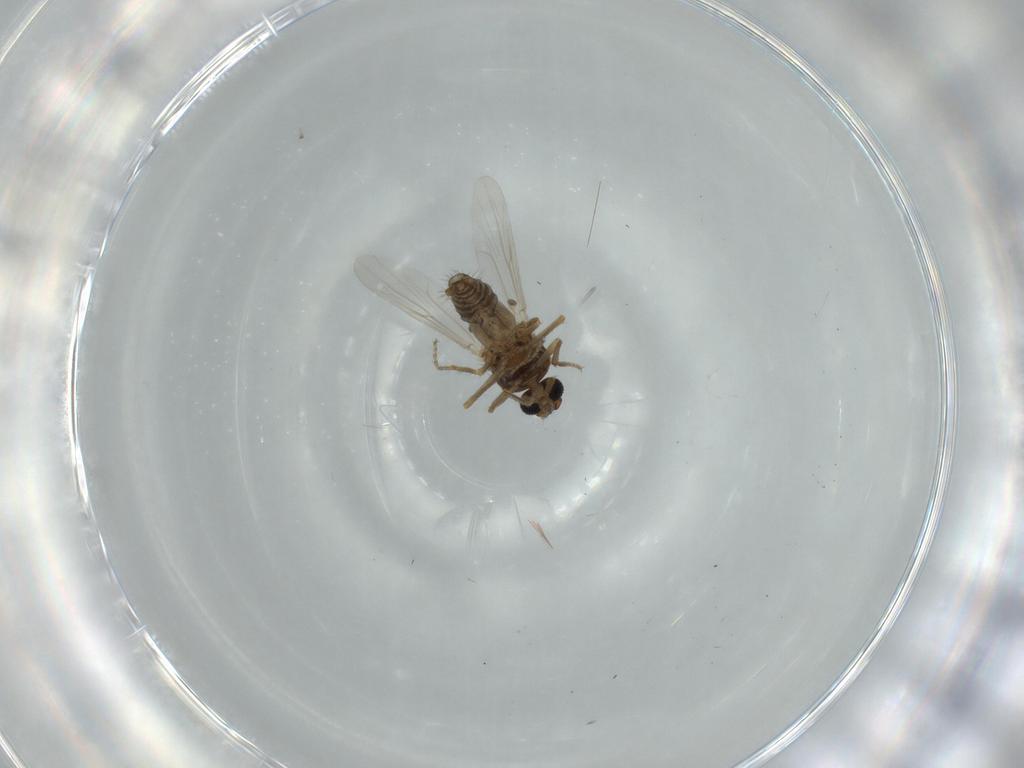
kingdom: Animalia
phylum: Arthropoda
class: Insecta
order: Diptera
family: Ceratopogonidae
